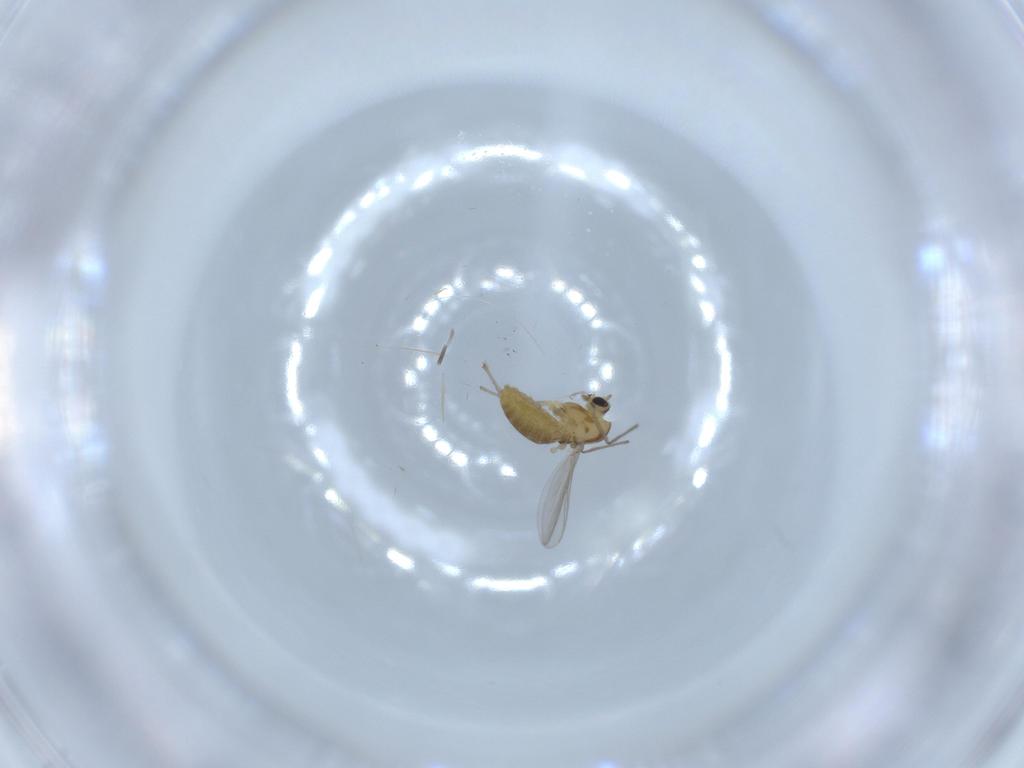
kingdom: Animalia
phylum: Arthropoda
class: Insecta
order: Diptera
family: Chironomidae
